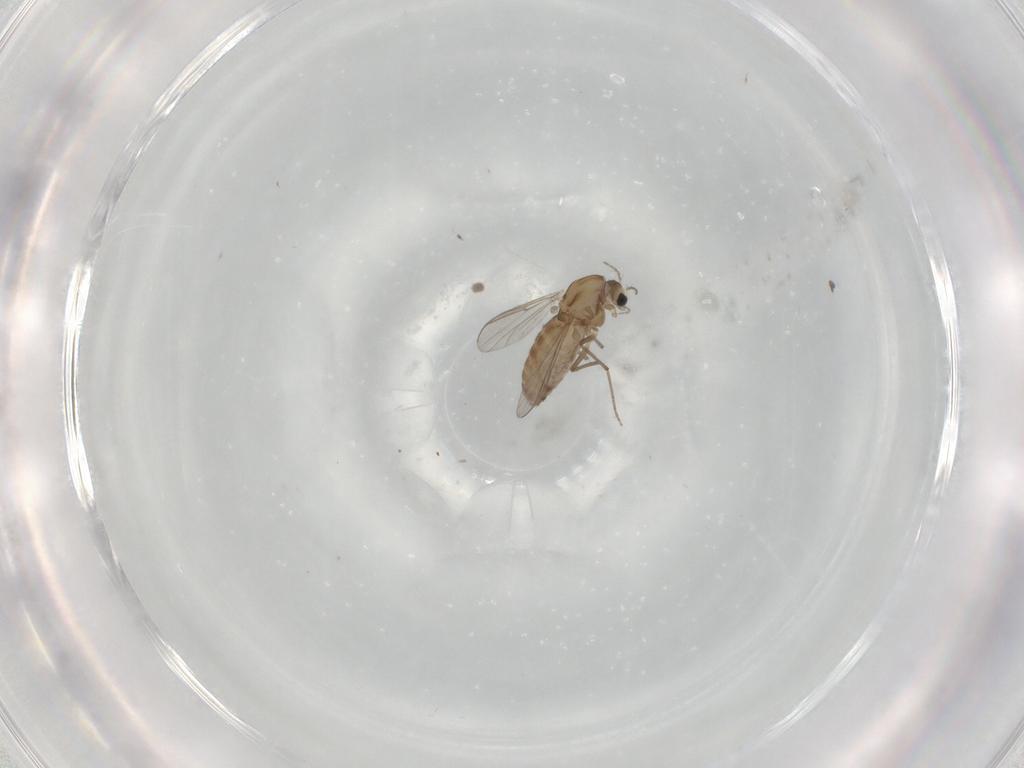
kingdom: Animalia
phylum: Arthropoda
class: Insecta
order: Diptera
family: Chironomidae
